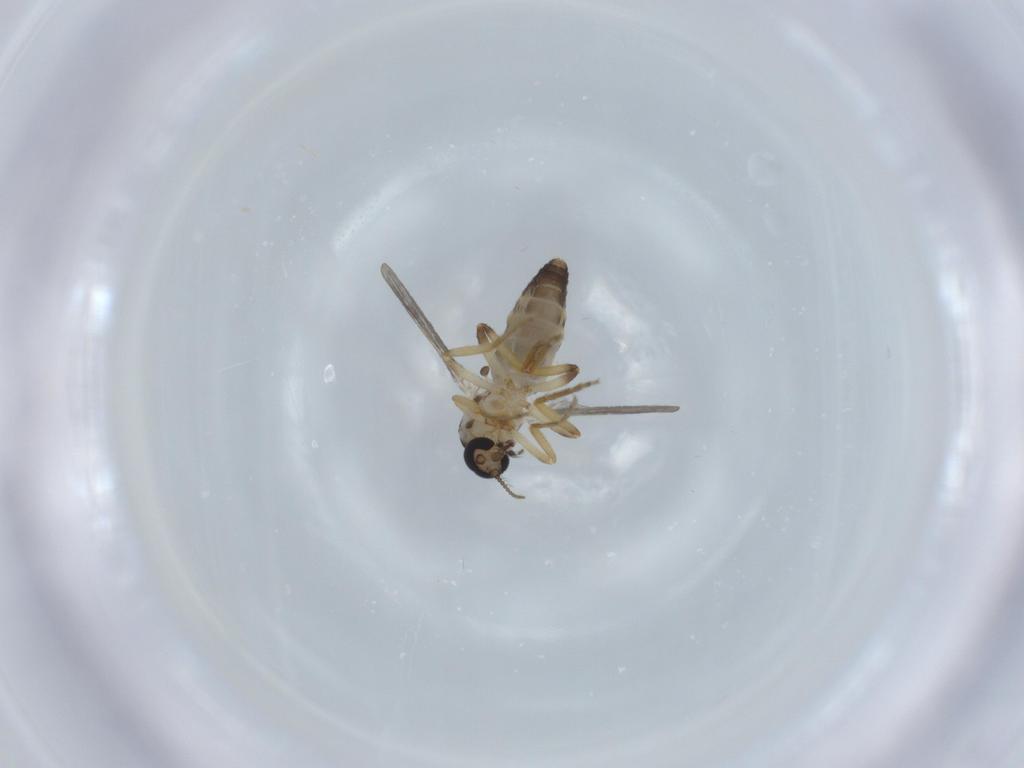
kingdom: Animalia
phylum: Arthropoda
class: Insecta
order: Diptera
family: Ceratopogonidae
